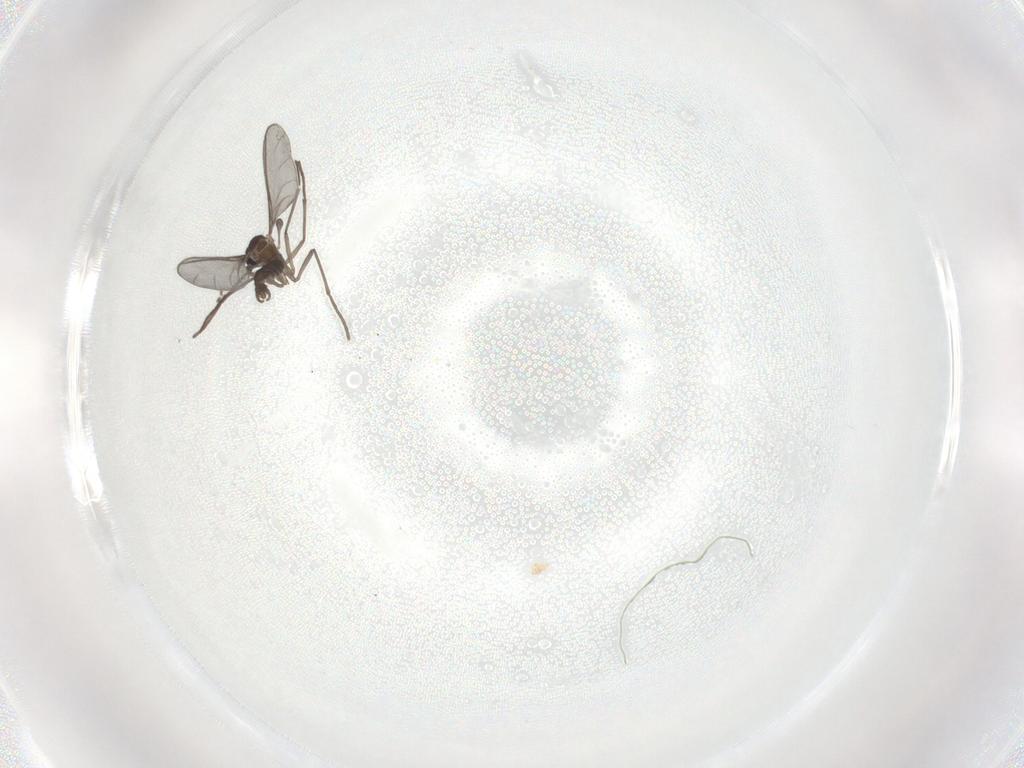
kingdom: Animalia
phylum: Arthropoda
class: Insecta
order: Diptera
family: Sciaridae
